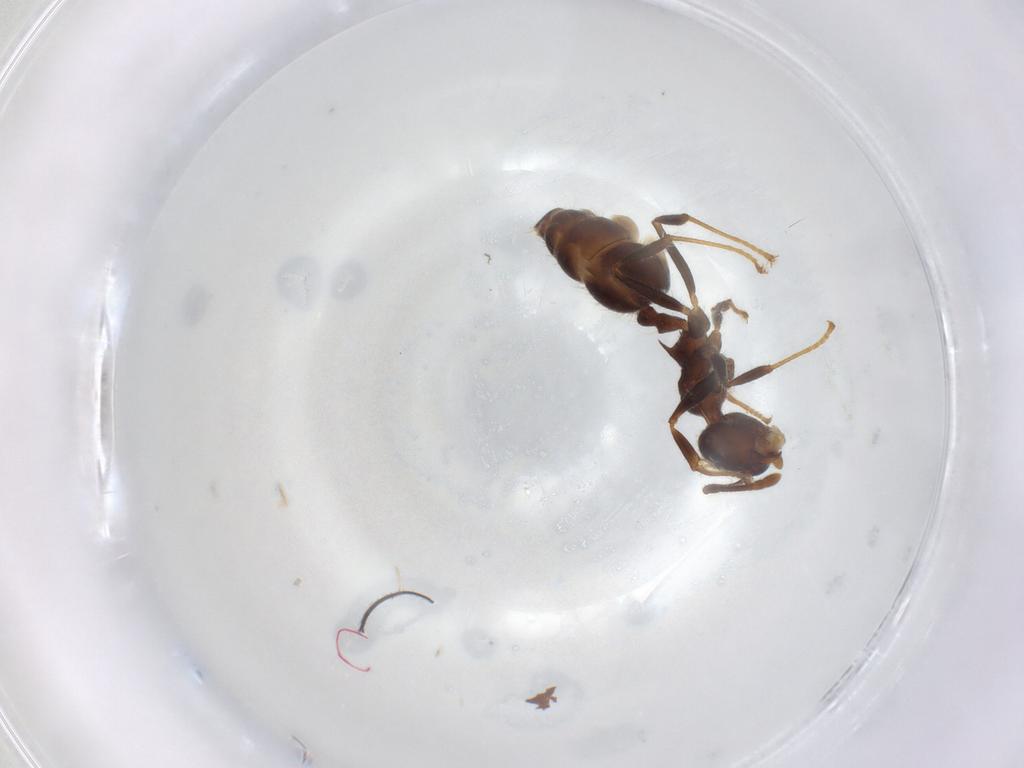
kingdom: Animalia
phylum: Arthropoda
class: Insecta
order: Hymenoptera
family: Formicidae
